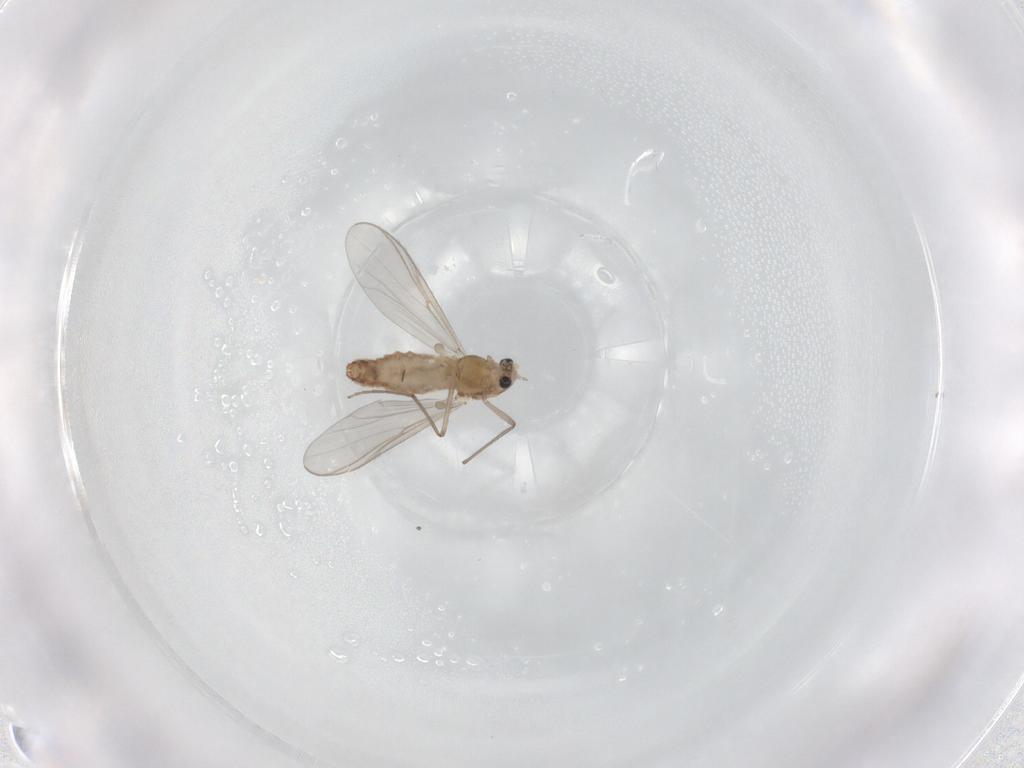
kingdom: Animalia
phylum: Arthropoda
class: Insecta
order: Diptera
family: Chironomidae
